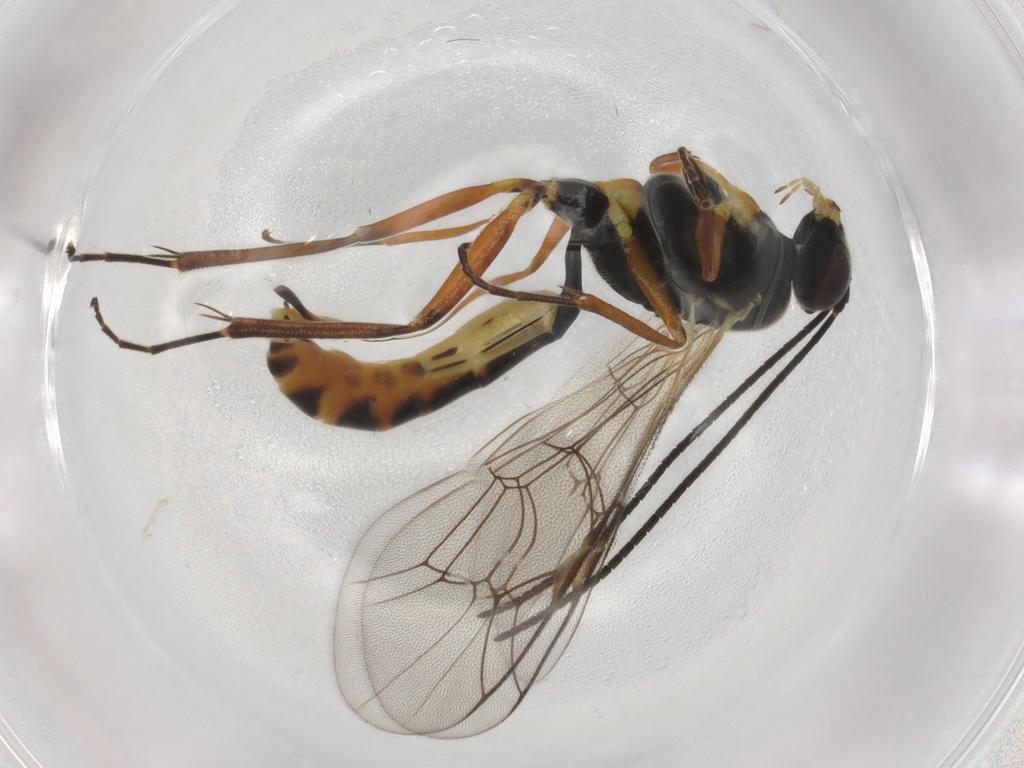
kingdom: Animalia
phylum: Arthropoda
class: Insecta
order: Hymenoptera
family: Ichneumonidae
